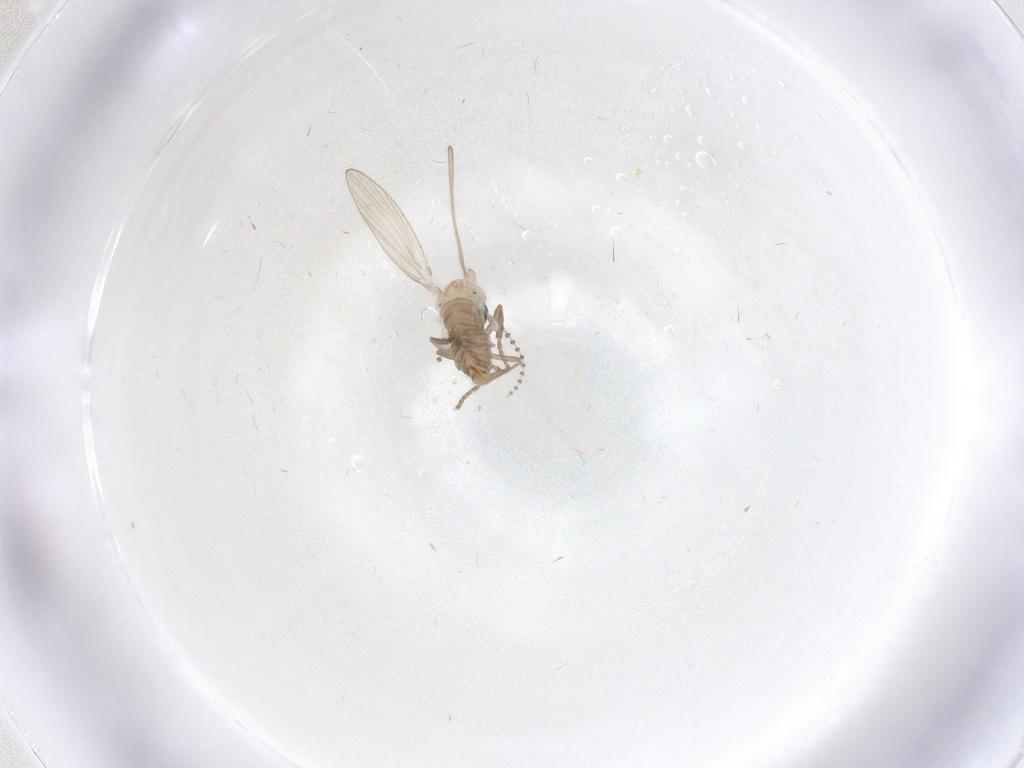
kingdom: Animalia
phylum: Arthropoda
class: Insecta
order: Diptera
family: Psychodidae
